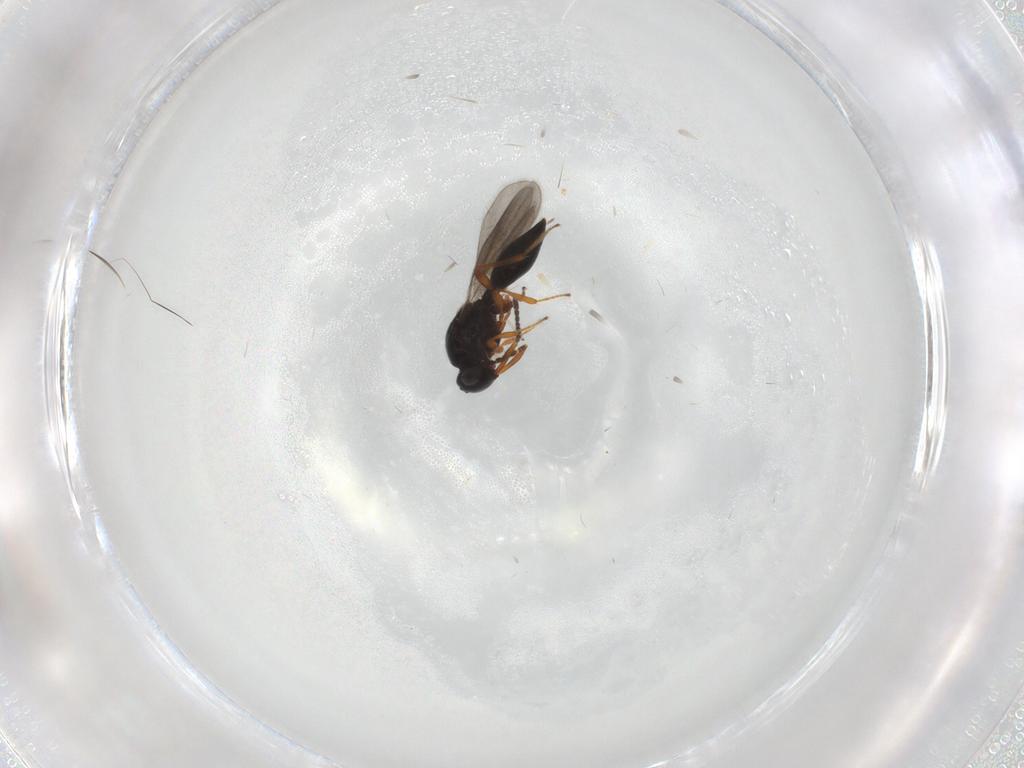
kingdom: Animalia
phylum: Arthropoda
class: Insecta
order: Hymenoptera
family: Platygastridae
